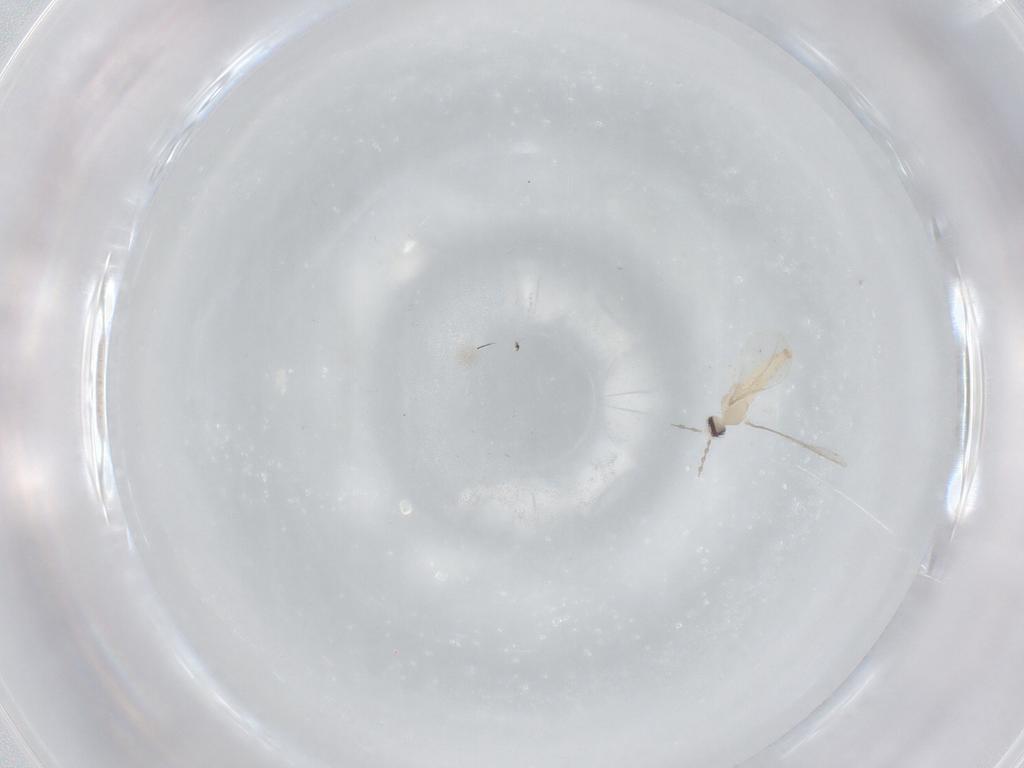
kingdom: Animalia
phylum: Arthropoda
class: Insecta
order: Diptera
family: Cecidomyiidae
